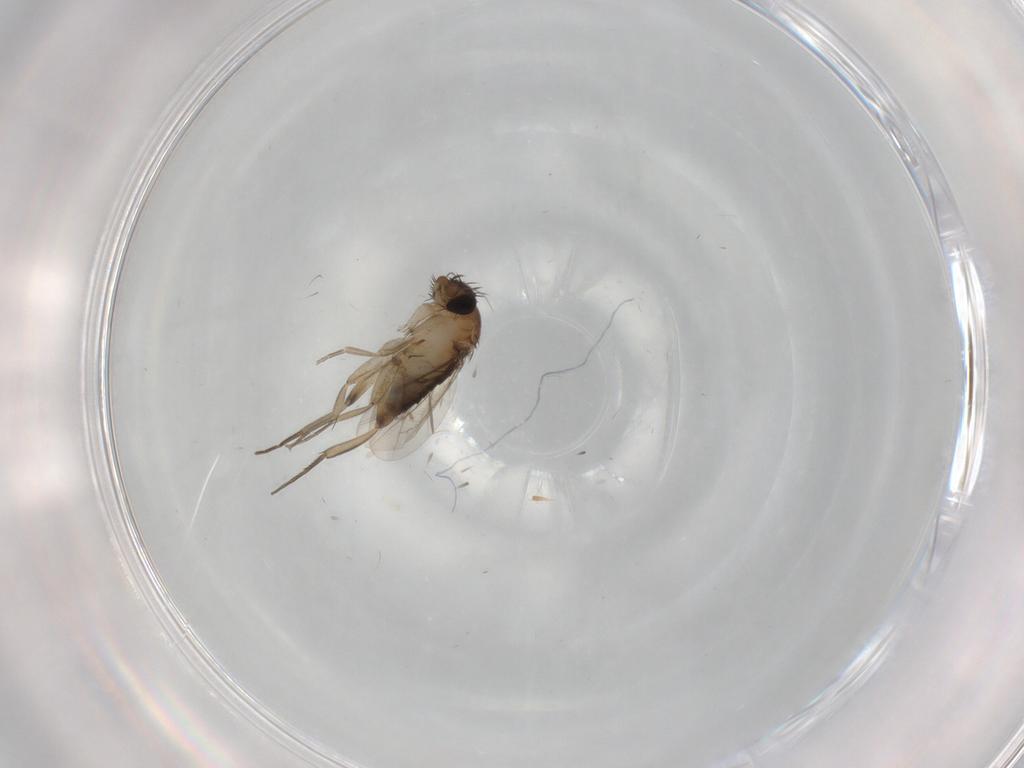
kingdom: Animalia
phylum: Arthropoda
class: Insecta
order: Diptera
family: Phoridae
